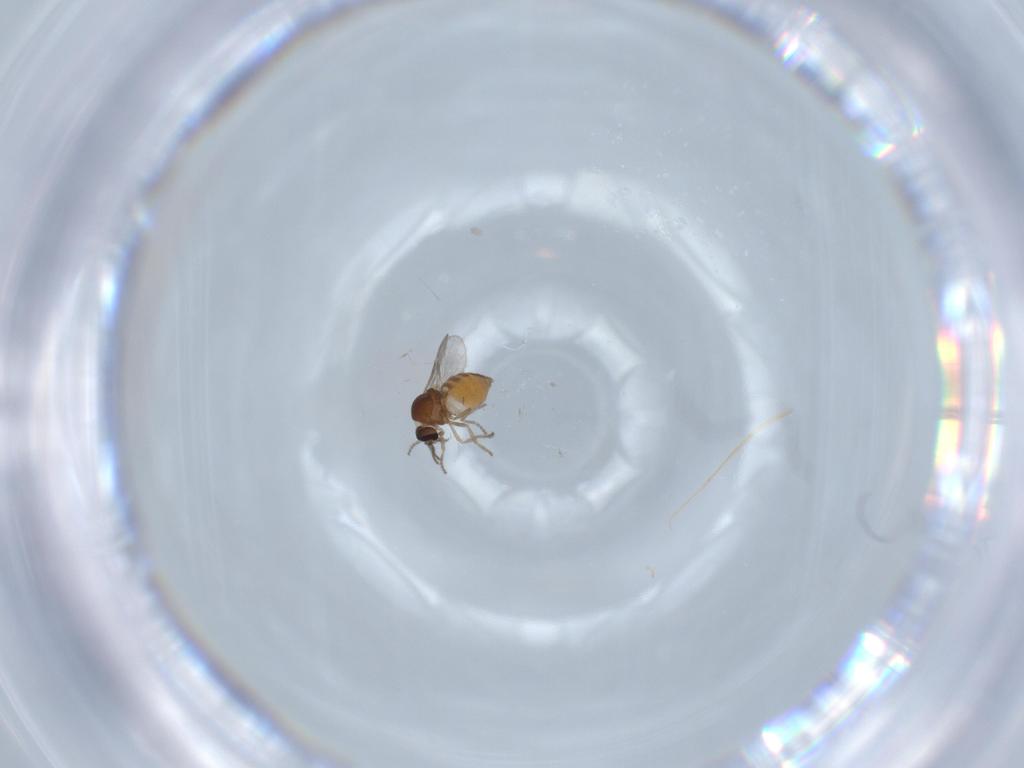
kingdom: Animalia
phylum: Arthropoda
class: Insecta
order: Diptera
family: Ceratopogonidae
